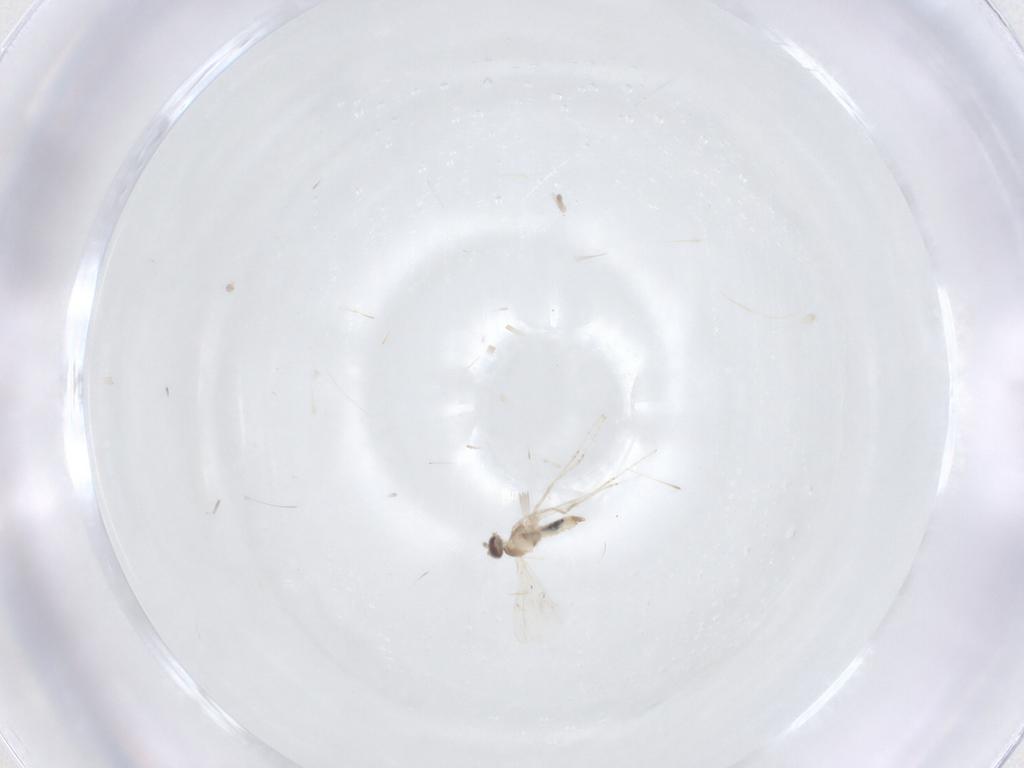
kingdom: Animalia
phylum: Arthropoda
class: Insecta
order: Diptera
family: Chironomidae
